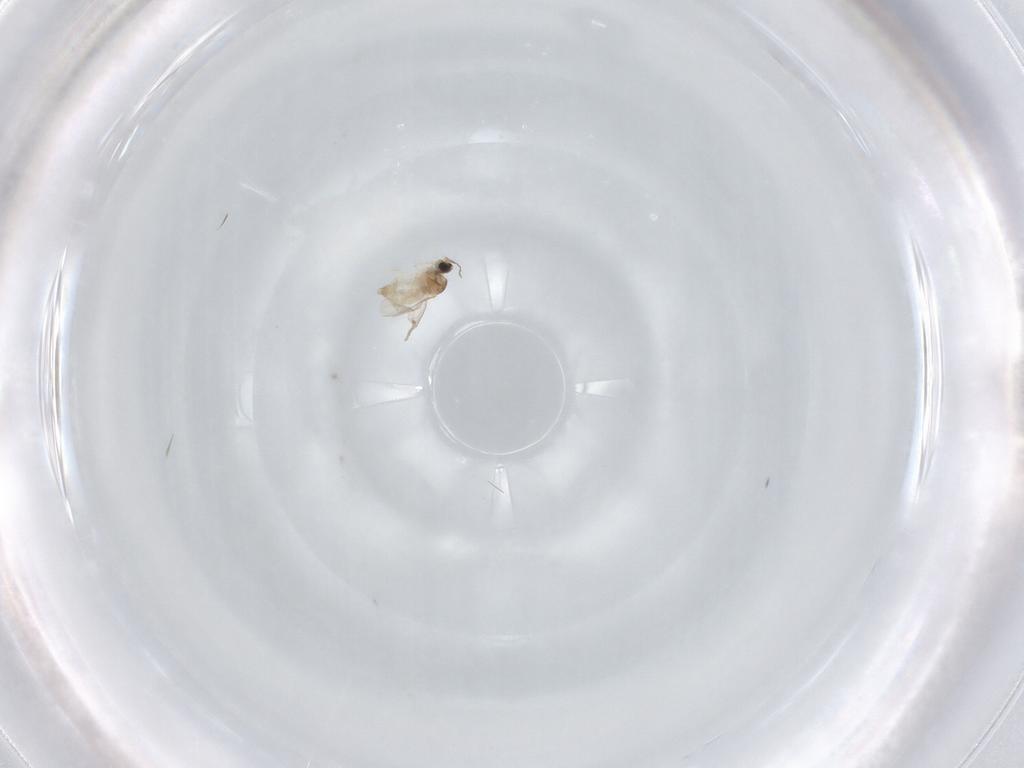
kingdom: Animalia
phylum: Arthropoda
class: Insecta
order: Diptera
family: Cecidomyiidae
